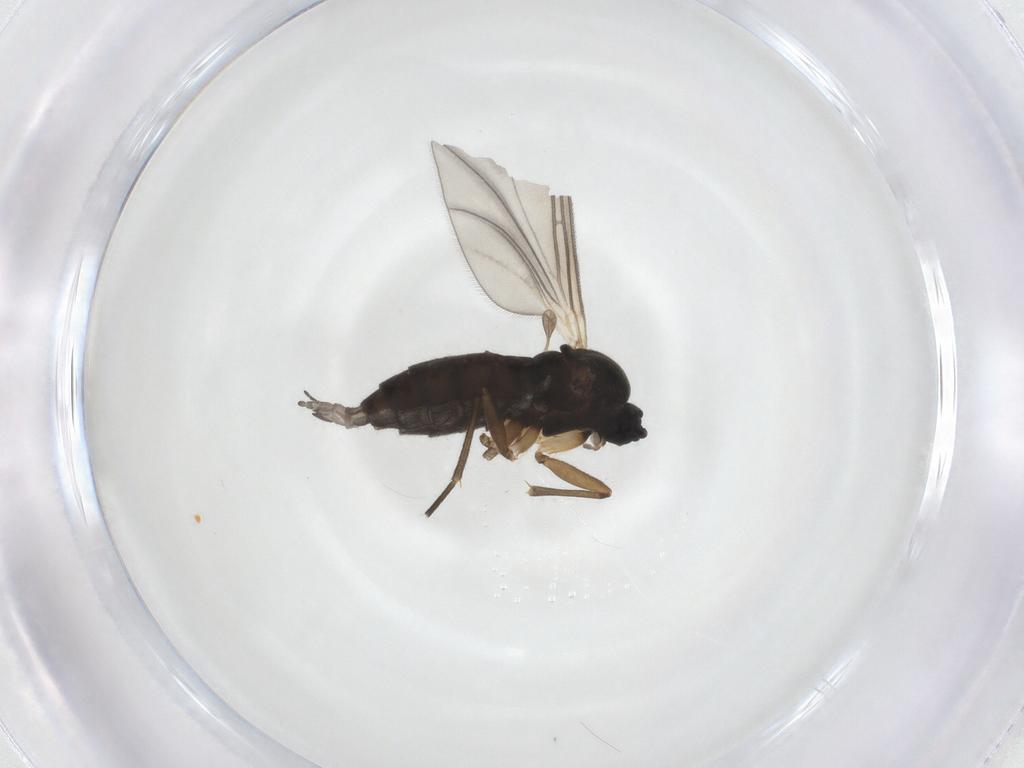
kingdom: Animalia
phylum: Arthropoda
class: Insecta
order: Diptera
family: Sciaridae
